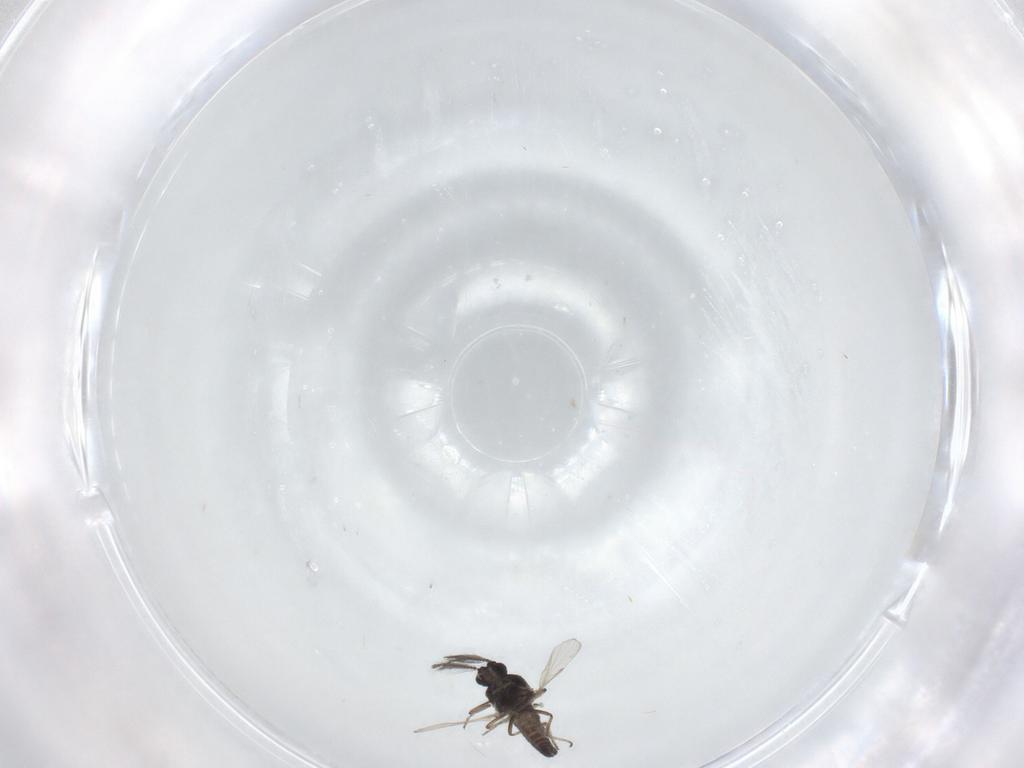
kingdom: Animalia
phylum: Arthropoda
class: Insecta
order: Diptera
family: Ceratopogonidae
